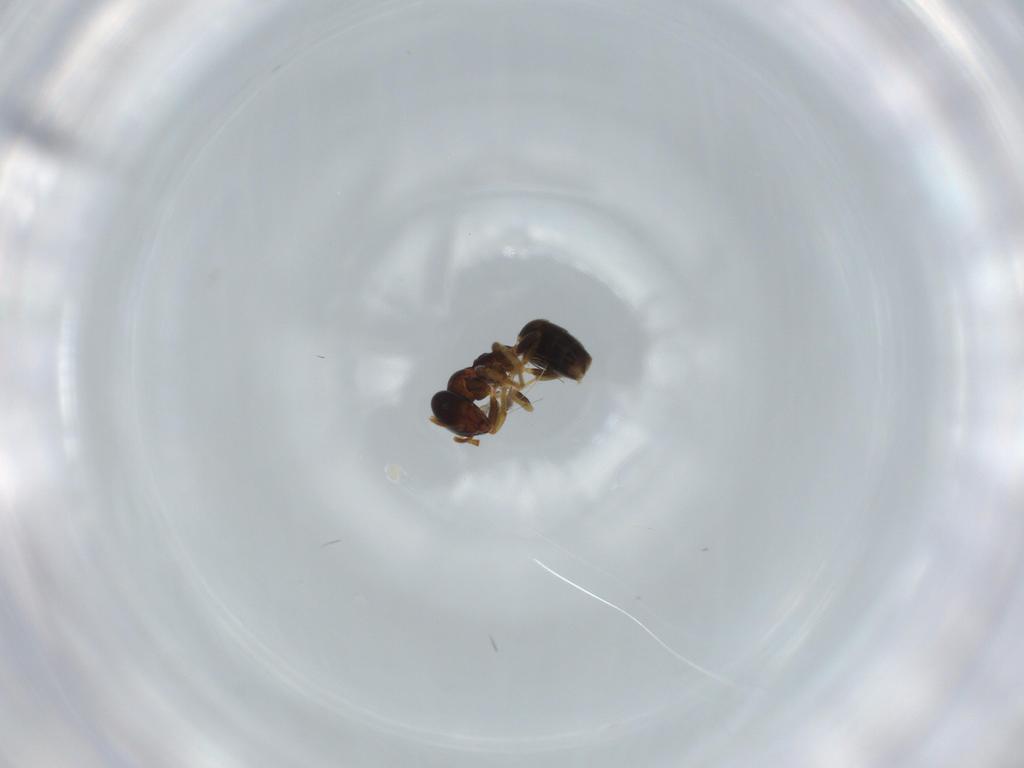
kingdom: Animalia
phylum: Arthropoda
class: Insecta
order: Hymenoptera
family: Formicidae
